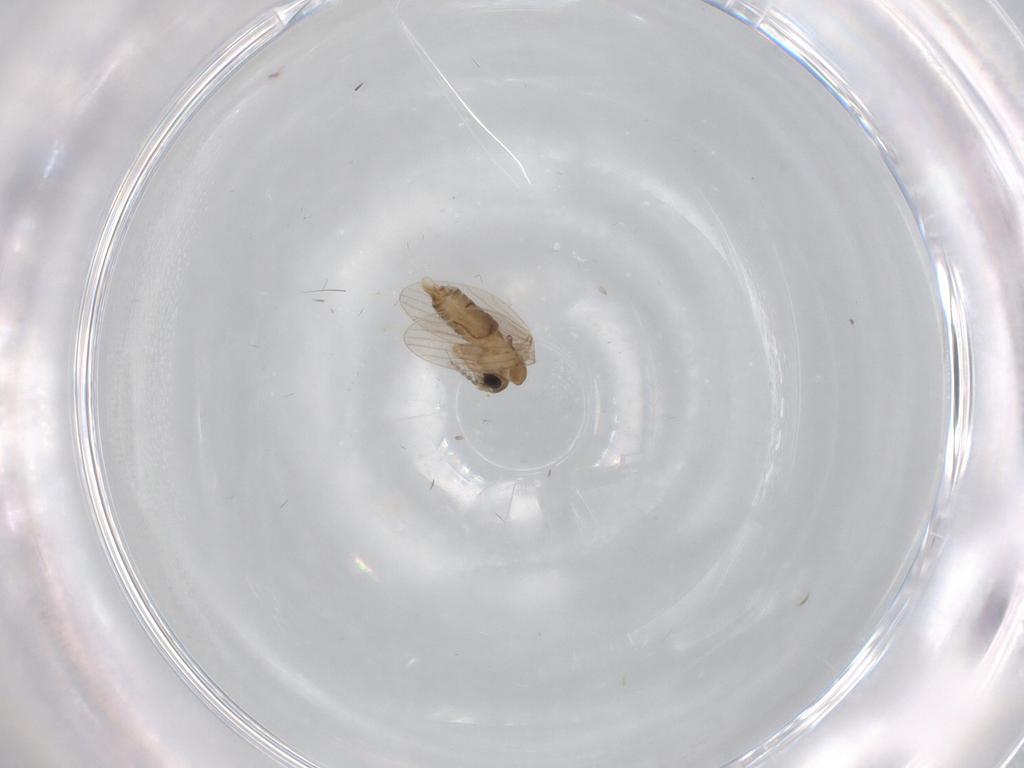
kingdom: Animalia
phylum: Arthropoda
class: Insecta
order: Diptera
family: Psychodidae
